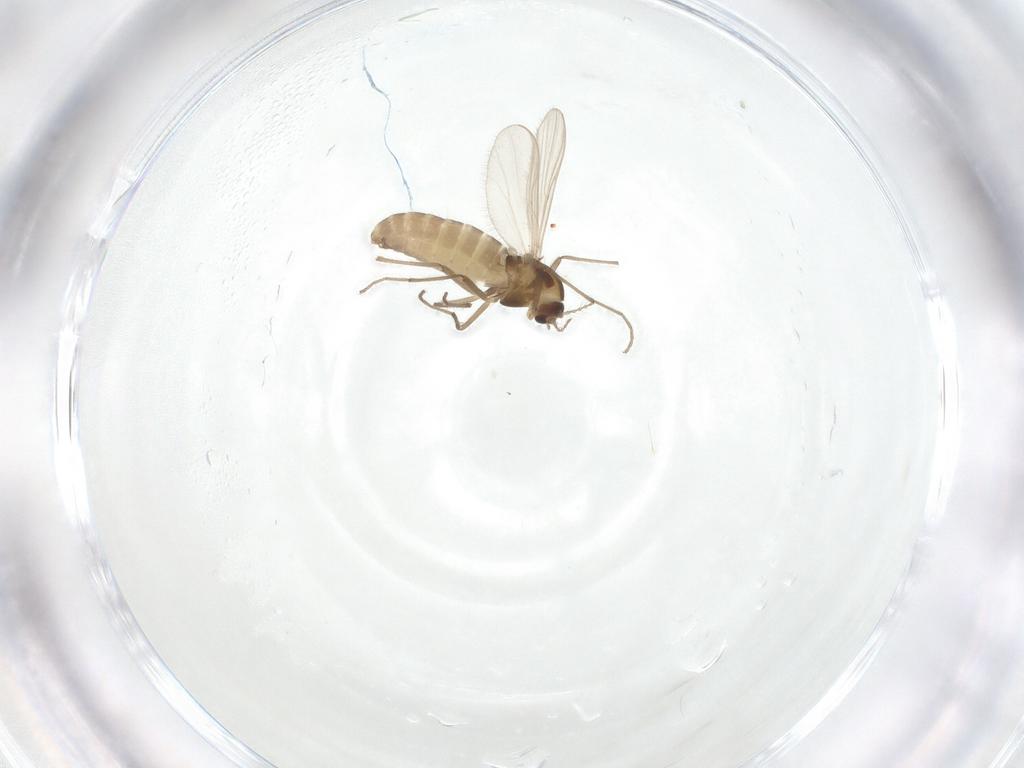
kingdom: Animalia
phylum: Arthropoda
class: Insecta
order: Diptera
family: Chironomidae
